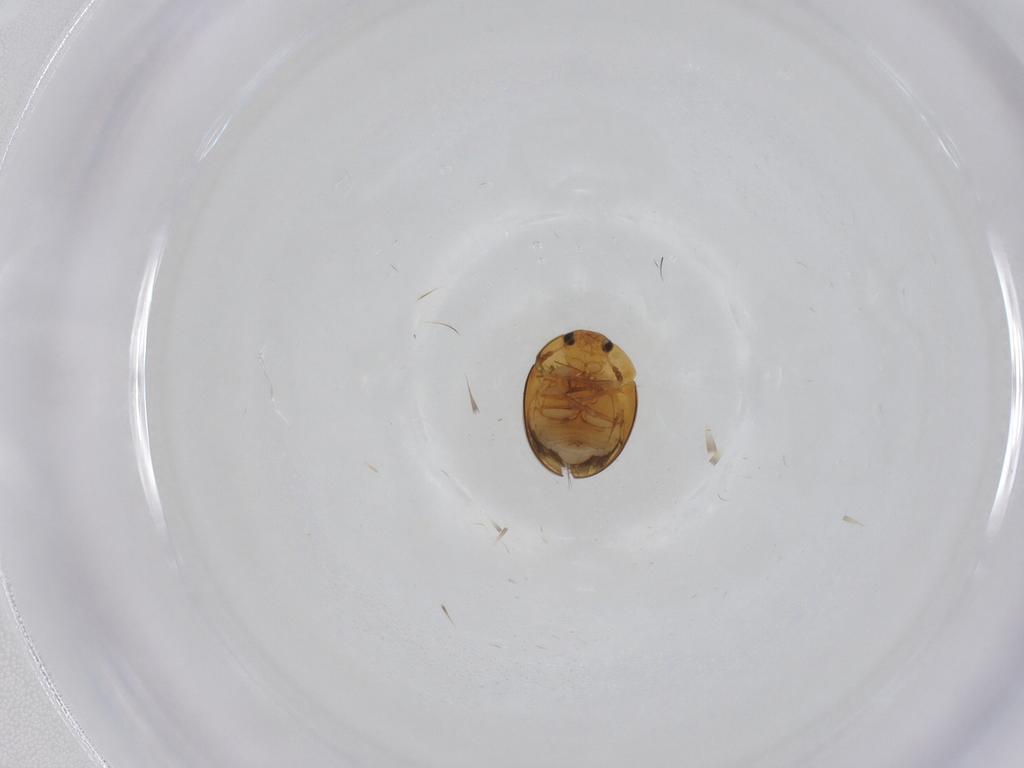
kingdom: Animalia
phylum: Arthropoda
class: Insecta
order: Coleoptera
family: Phalacridae
